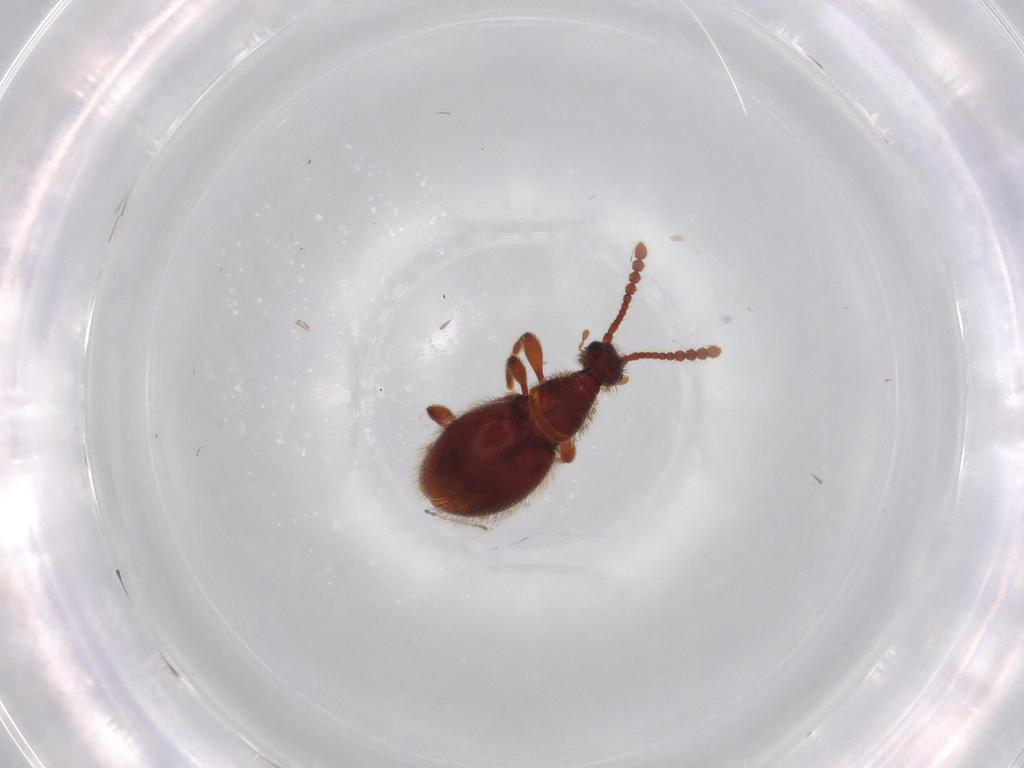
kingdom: Animalia
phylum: Arthropoda
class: Insecta
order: Coleoptera
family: Staphylinidae
